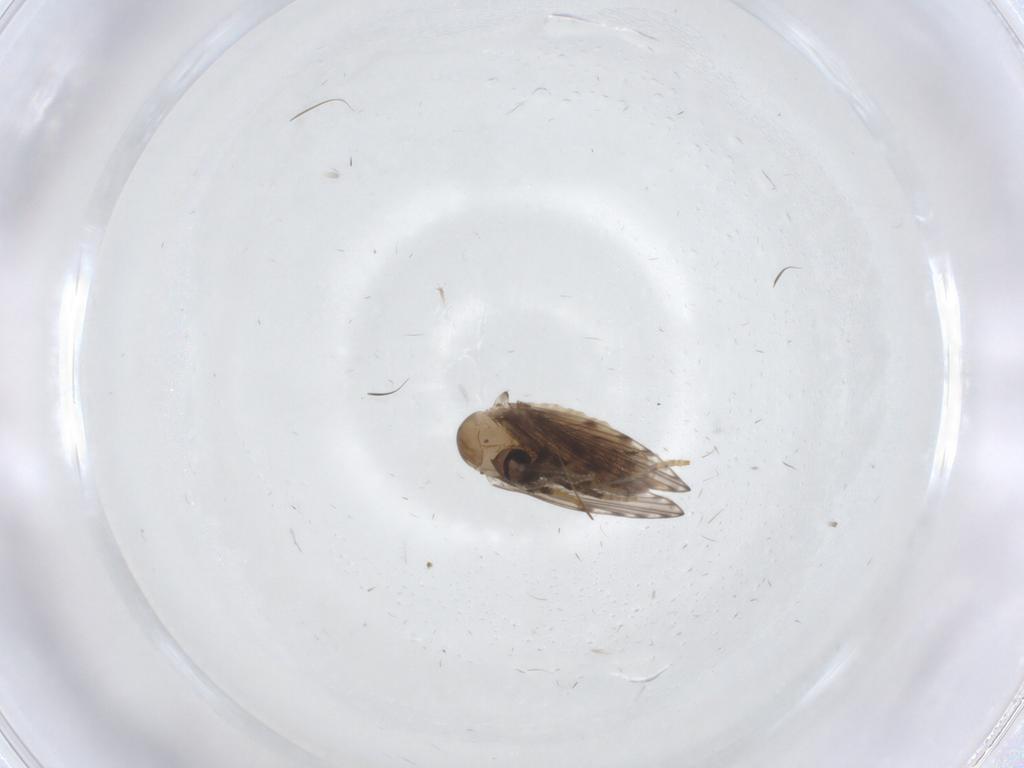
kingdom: Animalia
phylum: Arthropoda
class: Insecta
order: Diptera
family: Psychodidae
